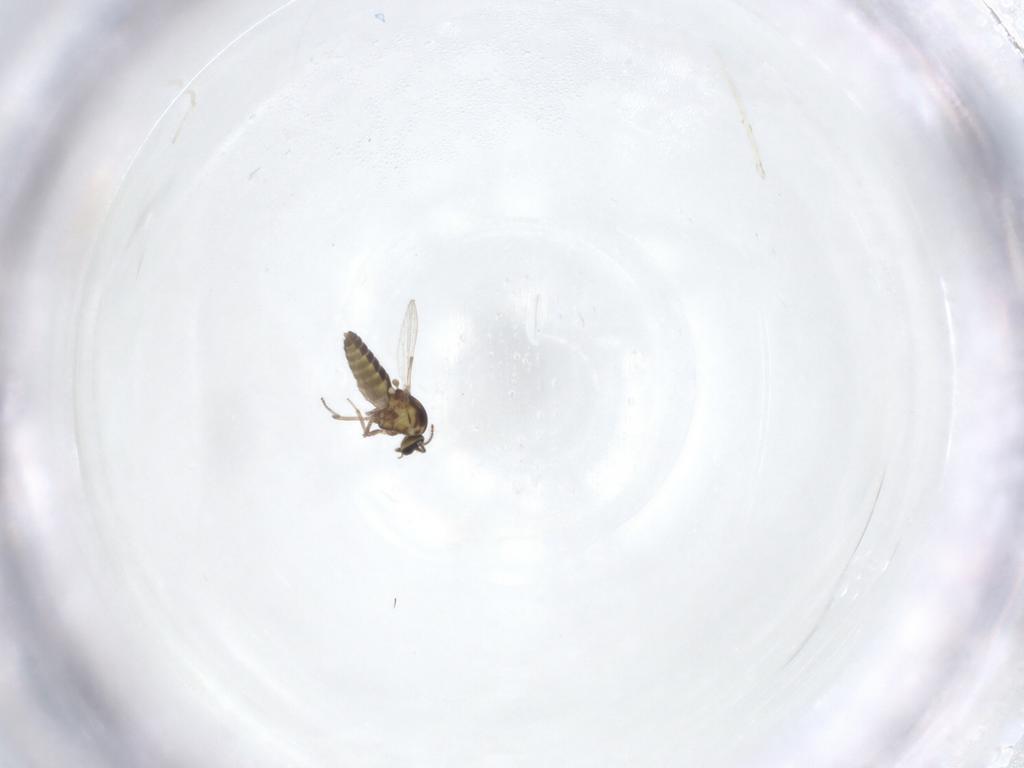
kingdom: Animalia
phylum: Arthropoda
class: Insecta
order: Diptera
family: Ceratopogonidae
